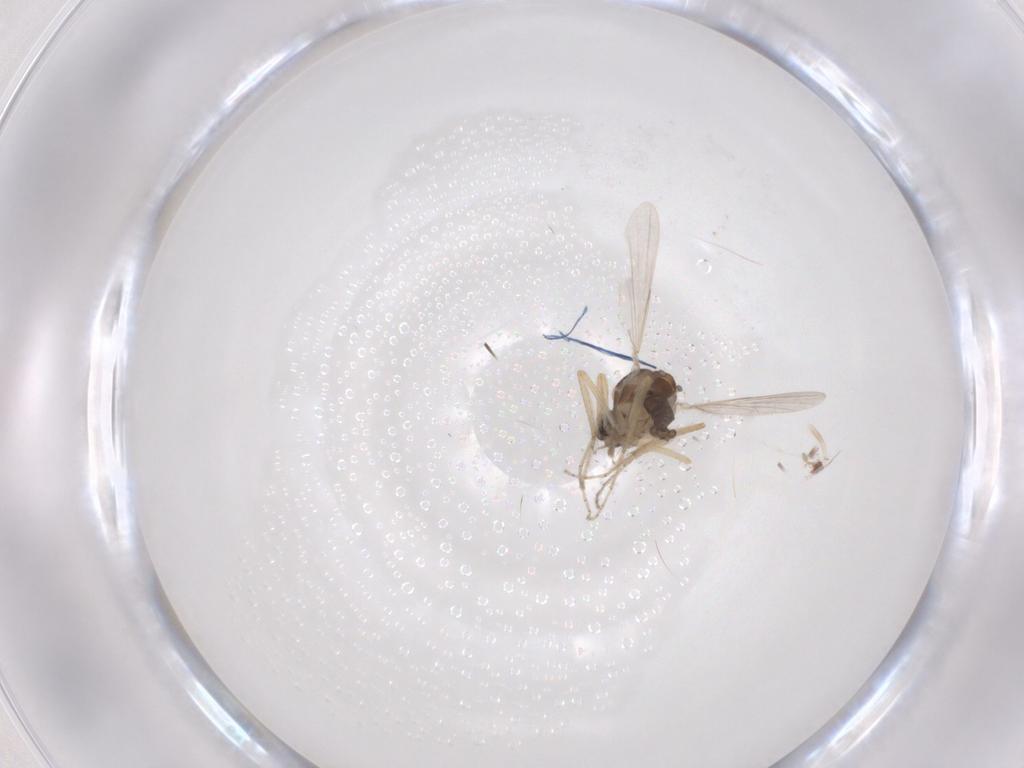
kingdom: Animalia
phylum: Arthropoda
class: Insecta
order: Diptera
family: Ceratopogonidae
